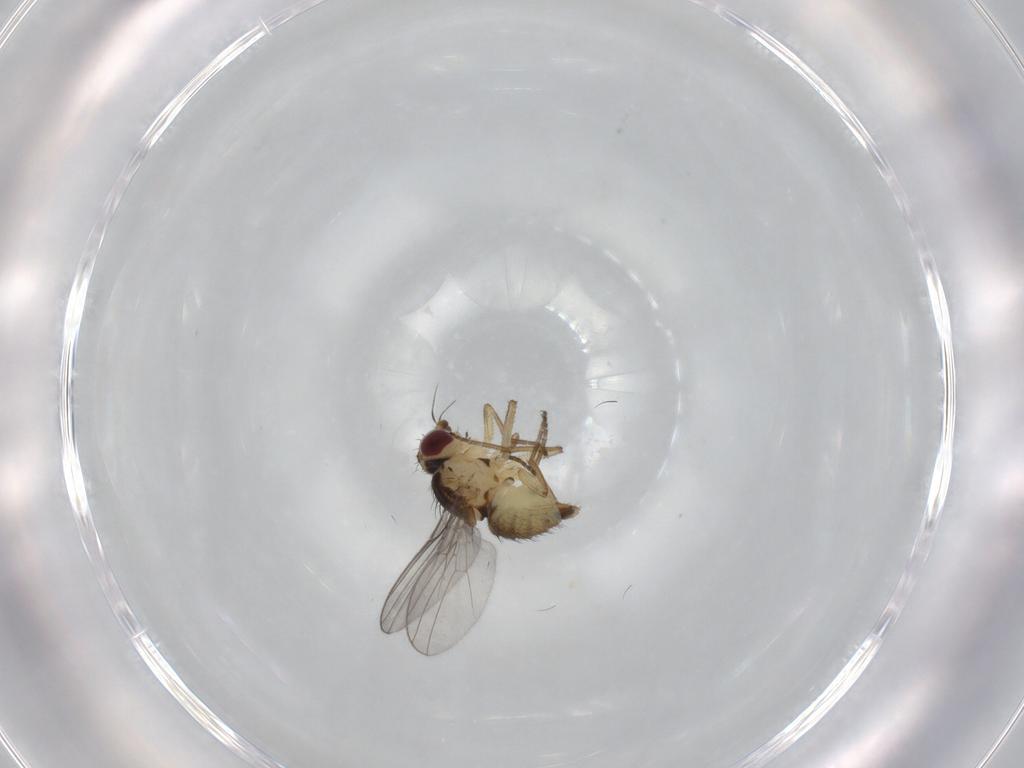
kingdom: Animalia
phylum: Arthropoda
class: Insecta
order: Diptera
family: Agromyzidae
